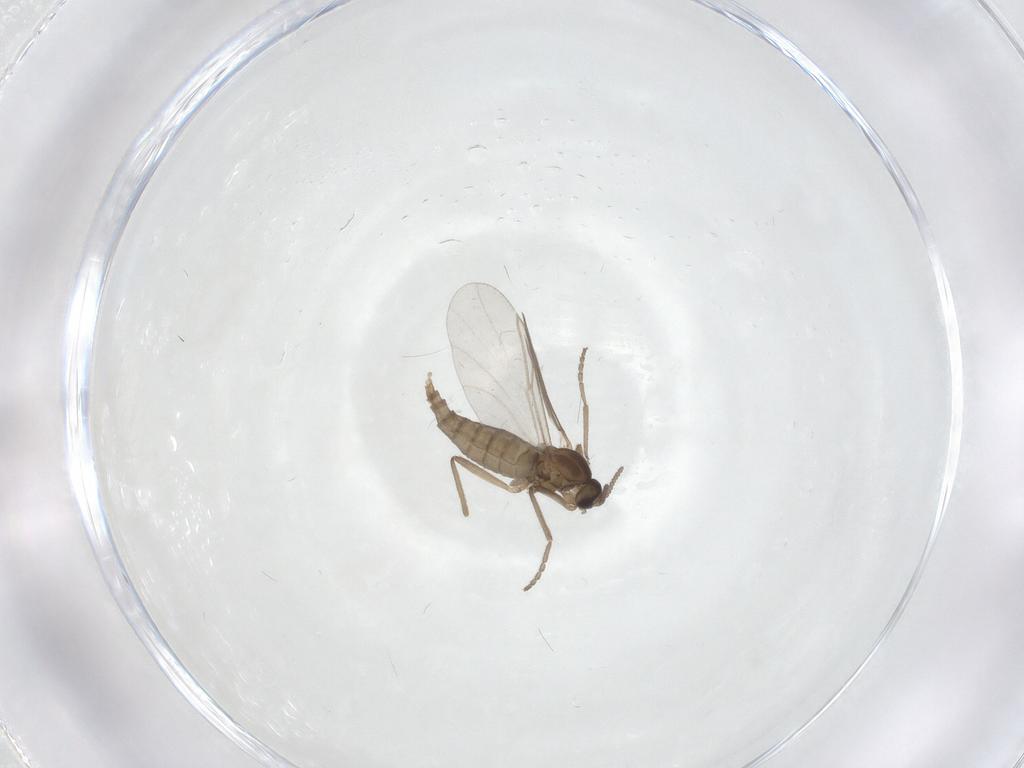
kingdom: Animalia
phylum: Arthropoda
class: Insecta
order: Diptera
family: Cecidomyiidae
